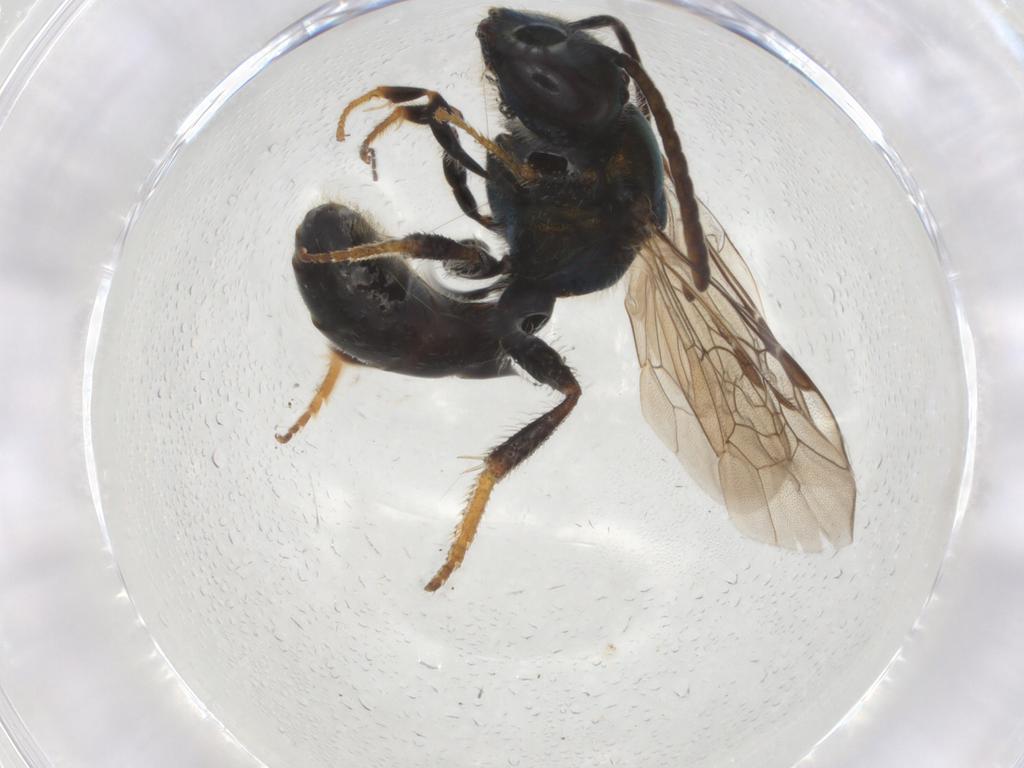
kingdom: Animalia
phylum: Arthropoda
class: Insecta
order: Hymenoptera
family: Halictidae
